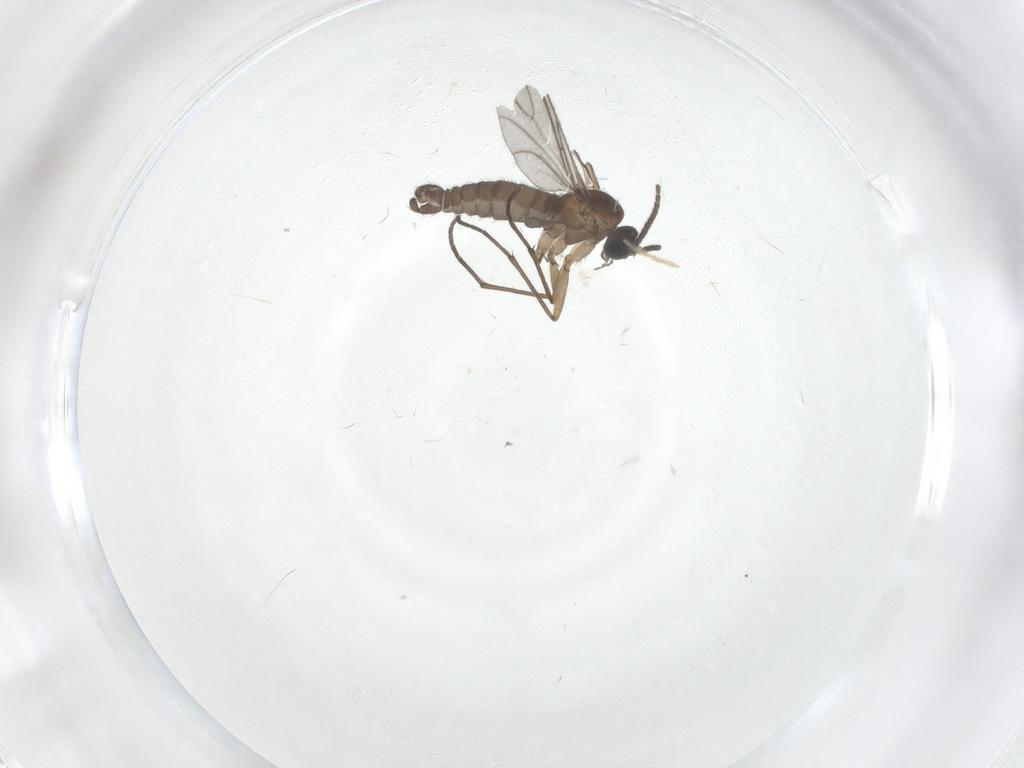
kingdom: Animalia
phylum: Arthropoda
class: Insecta
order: Diptera
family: Sciaridae
